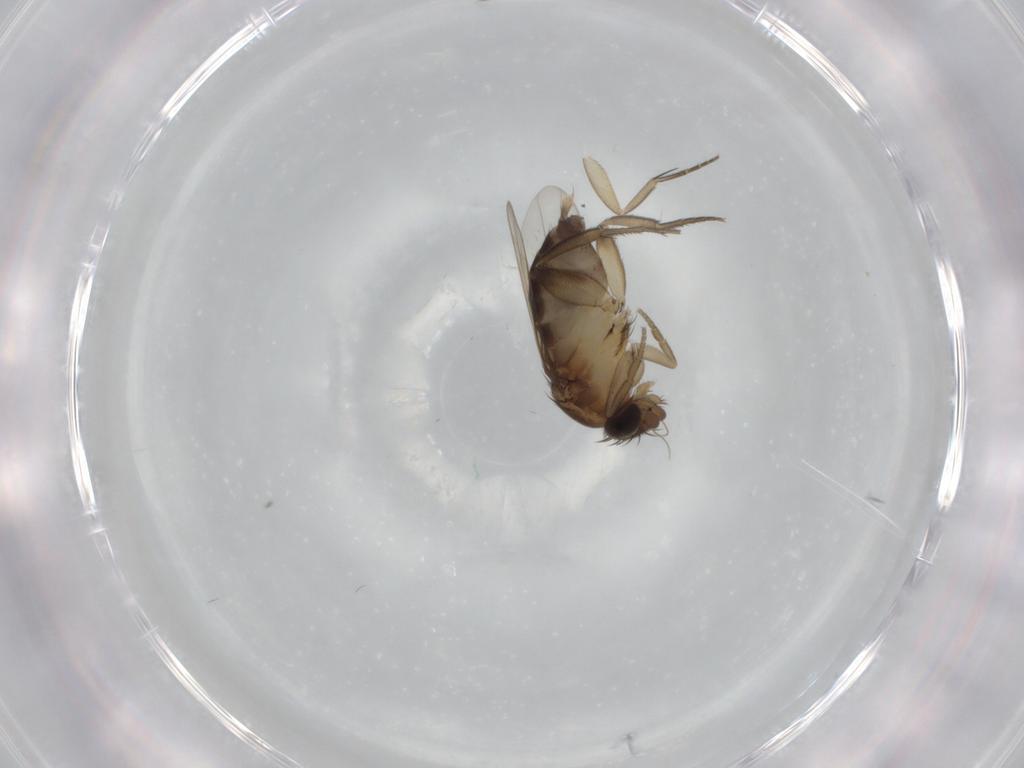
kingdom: Animalia
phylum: Arthropoda
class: Insecta
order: Diptera
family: Phoridae
